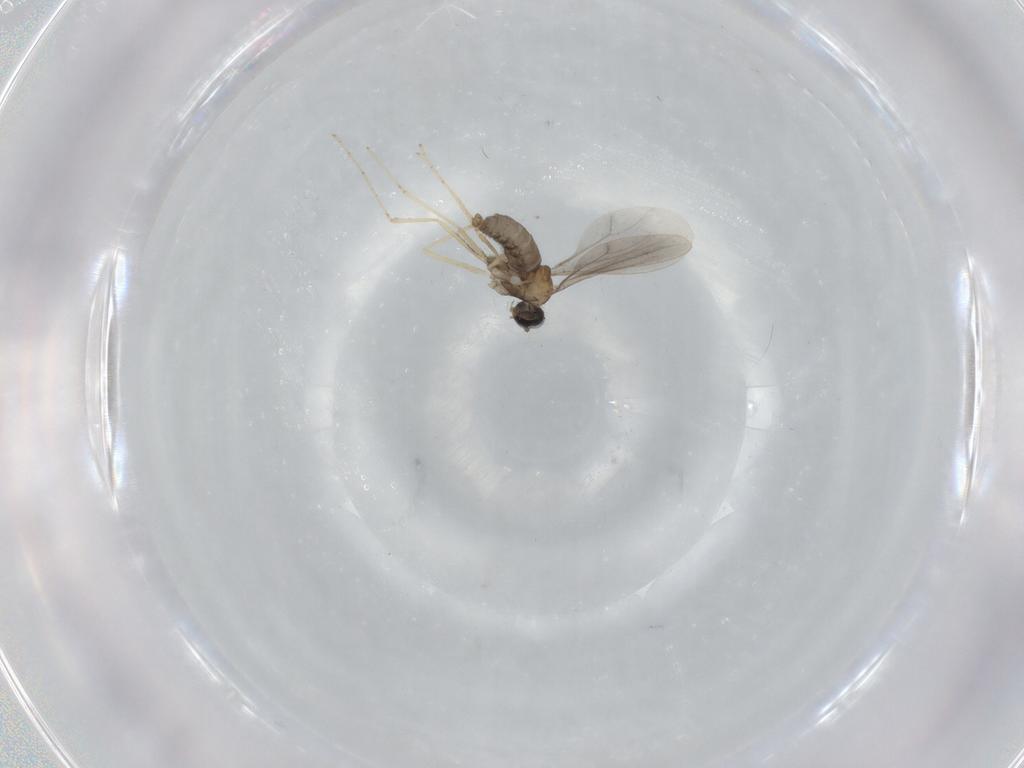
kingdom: Animalia
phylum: Arthropoda
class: Insecta
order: Diptera
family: Cecidomyiidae
